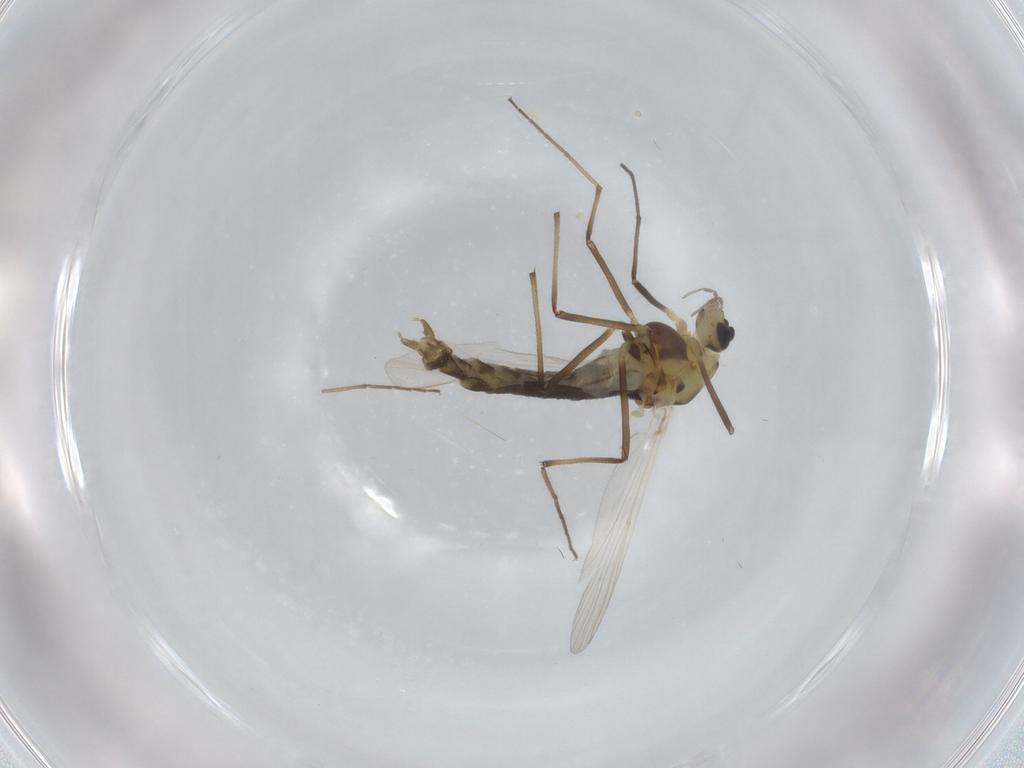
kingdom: Animalia
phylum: Arthropoda
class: Insecta
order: Diptera
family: Chironomidae
